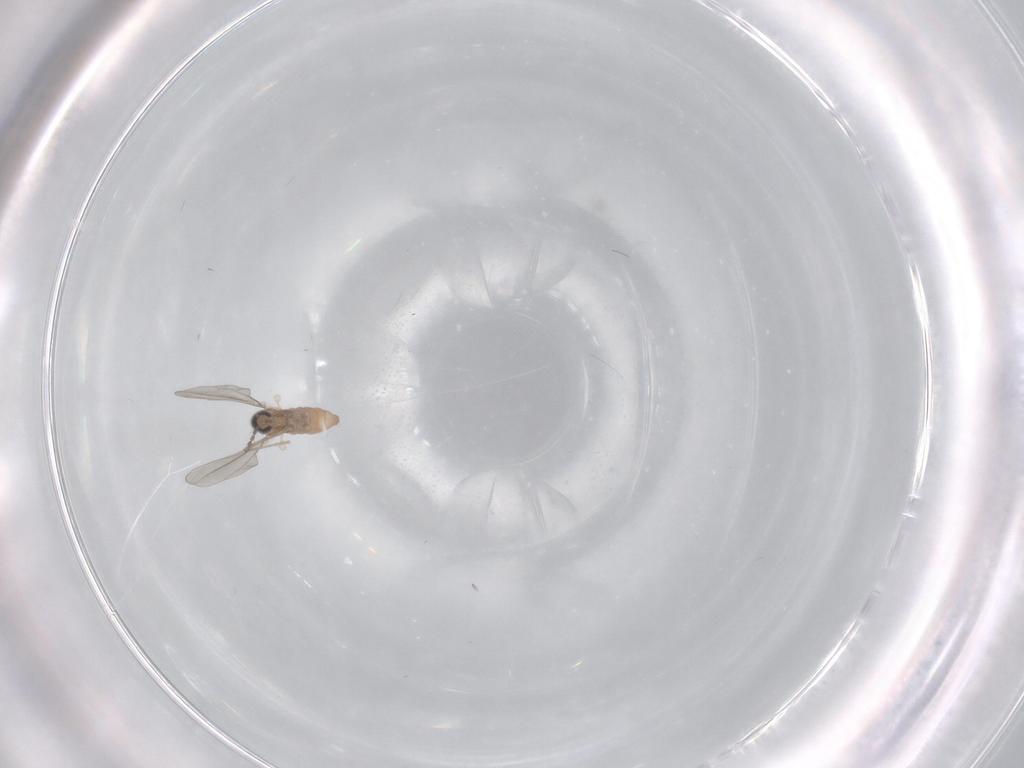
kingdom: Animalia
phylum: Arthropoda
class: Insecta
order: Diptera
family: Cecidomyiidae
